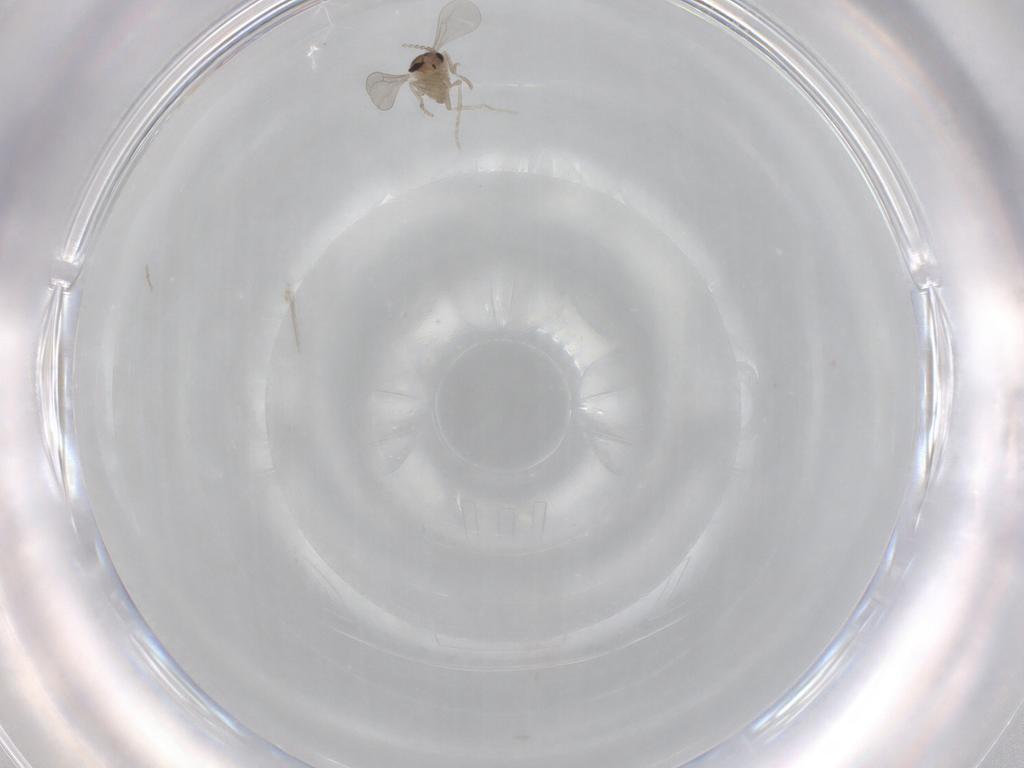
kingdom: Animalia
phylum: Arthropoda
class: Insecta
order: Diptera
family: Cecidomyiidae
